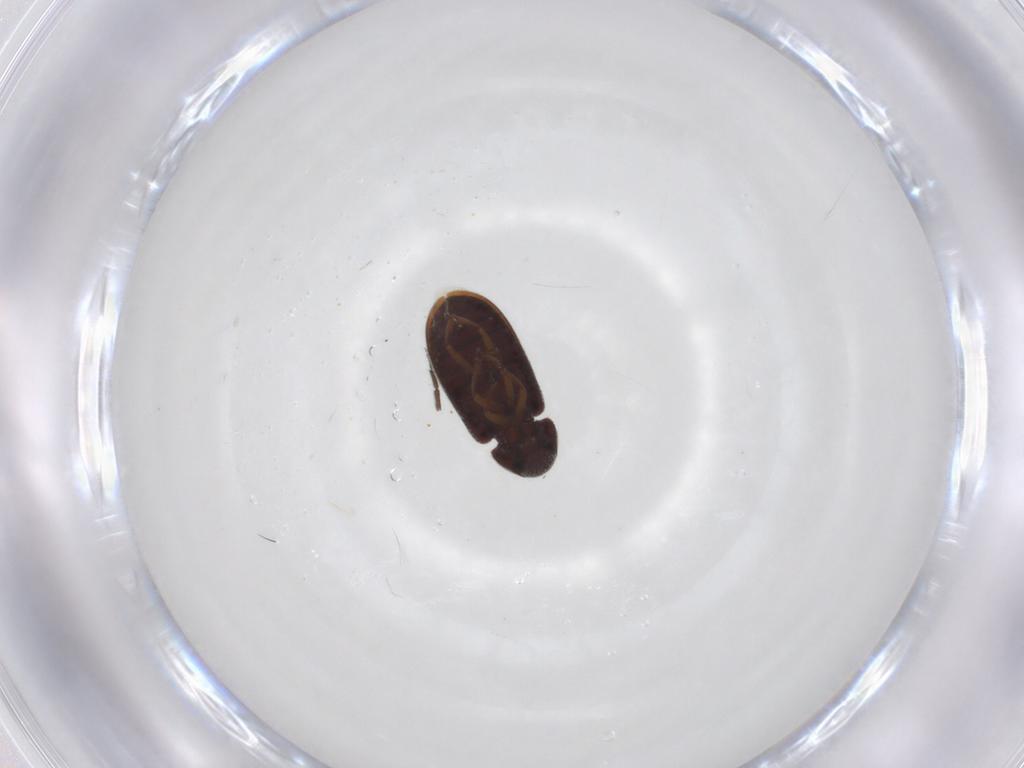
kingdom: Animalia
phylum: Arthropoda
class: Insecta
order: Coleoptera
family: Rhadalidae
